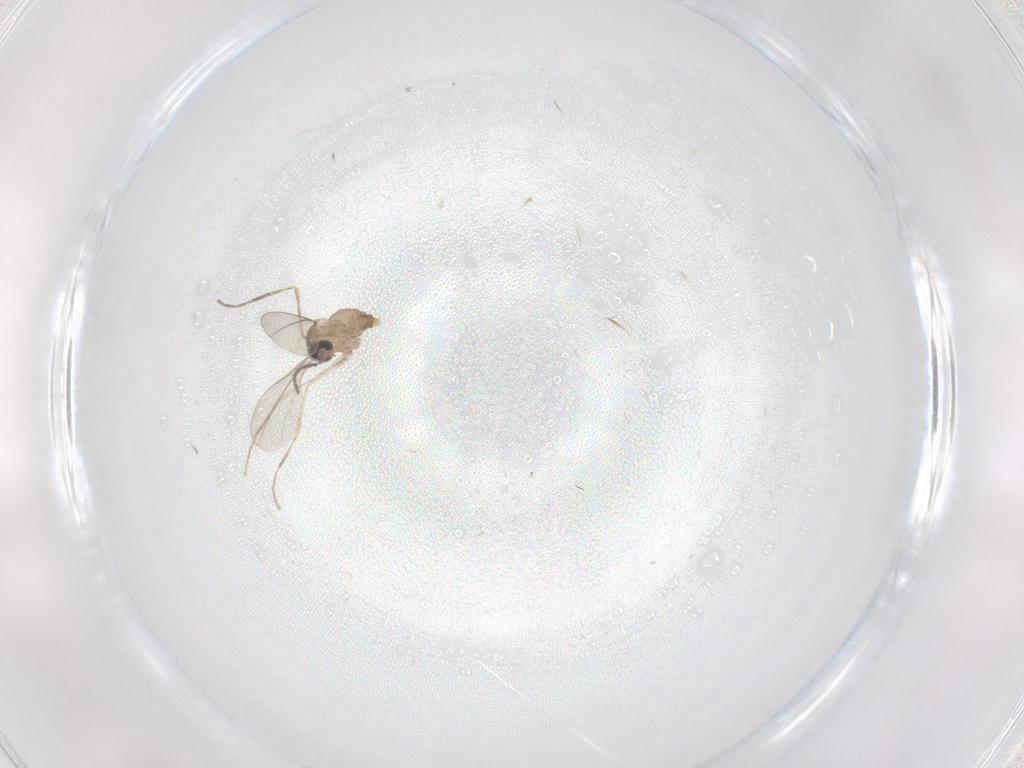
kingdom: Animalia
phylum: Arthropoda
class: Insecta
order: Diptera
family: Cecidomyiidae
